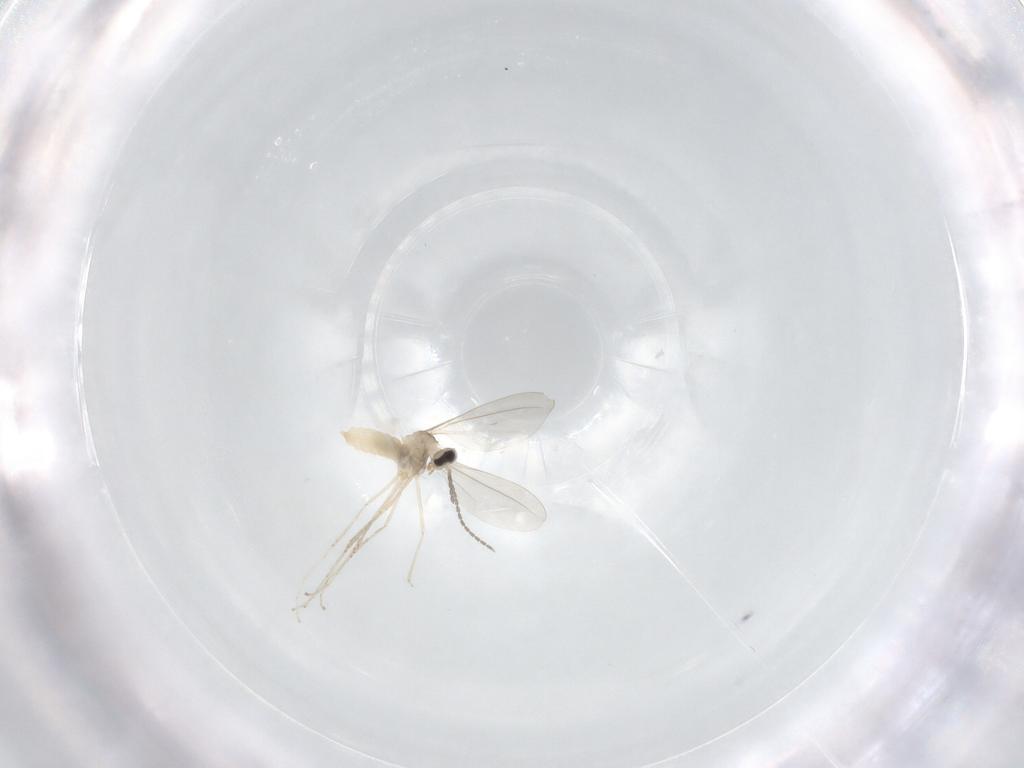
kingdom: Animalia
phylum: Arthropoda
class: Insecta
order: Diptera
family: Cecidomyiidae
